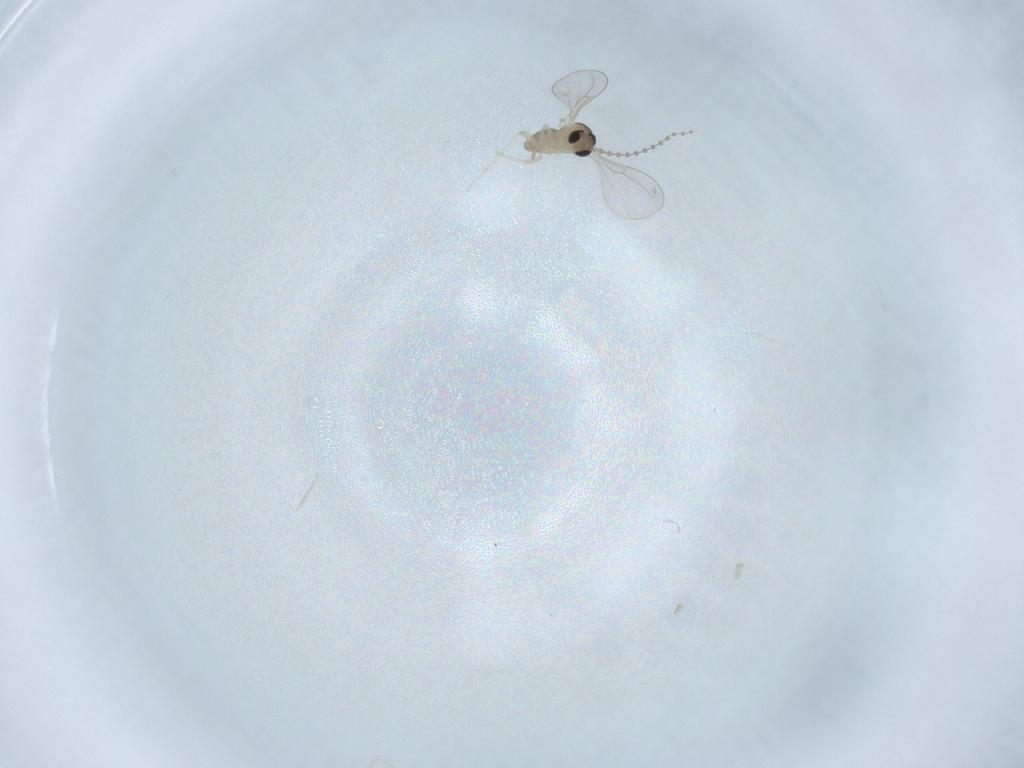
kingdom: Animalia
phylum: Arthropoda
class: Insecta
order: Diptera
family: Cecidomyiidae
